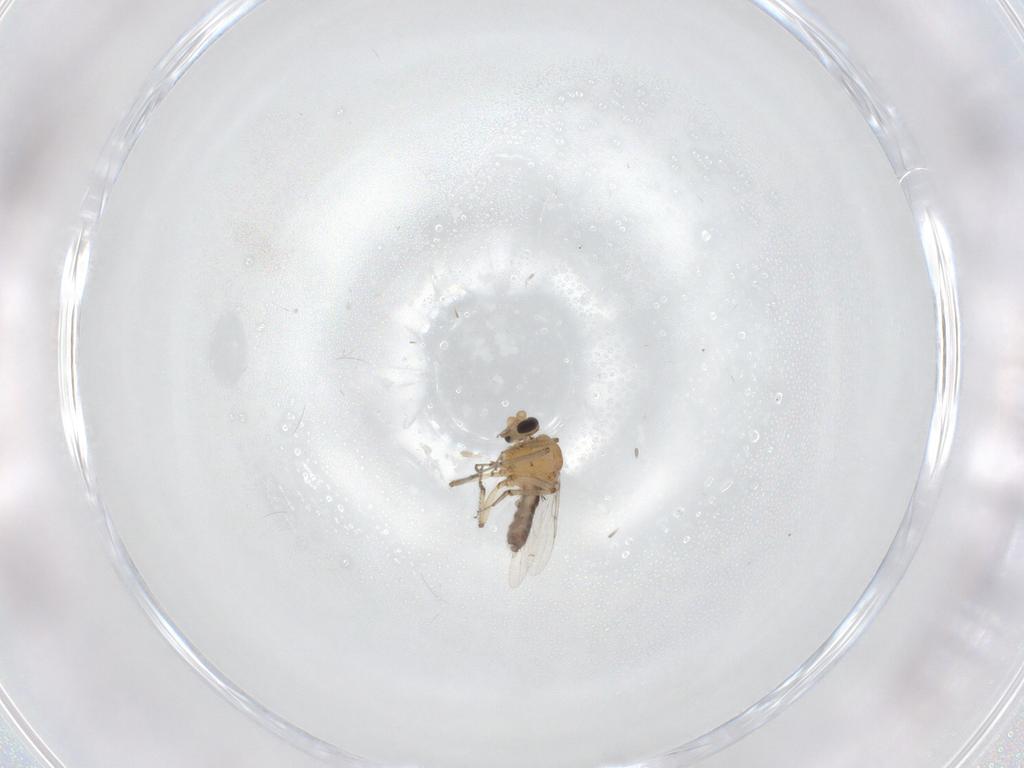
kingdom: Animalia
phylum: Arthropoda
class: Insecta
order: Diptera
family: Ceratopogonidae
